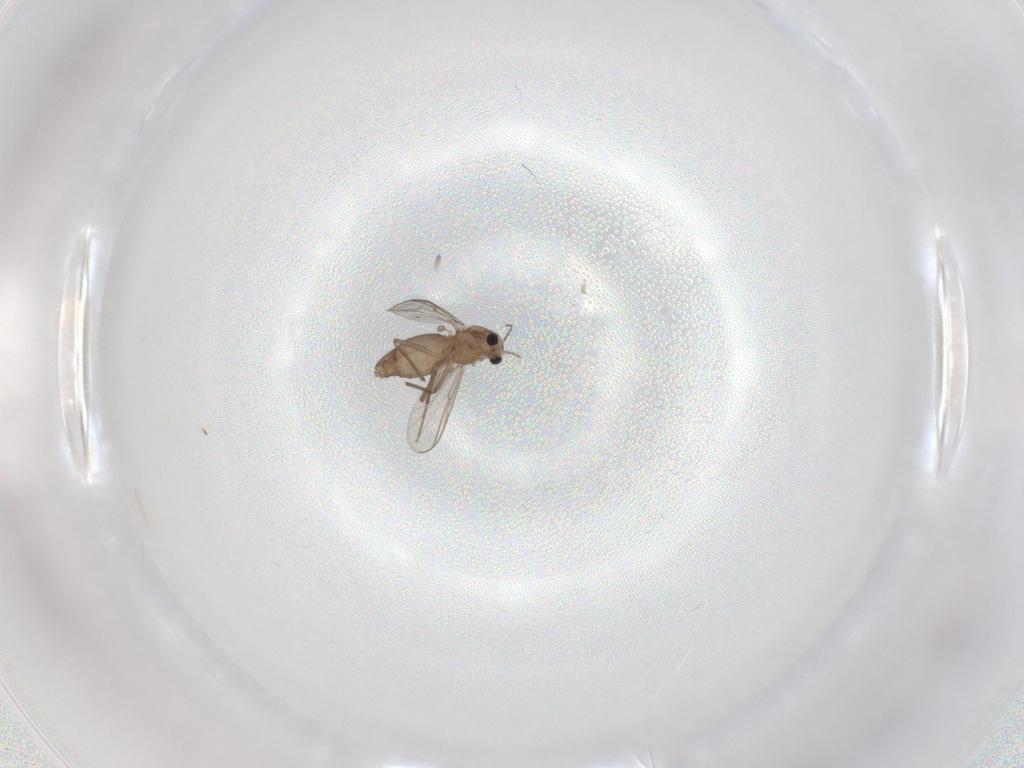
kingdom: Animalia
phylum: Arthropoda
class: Insecta
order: Diptera
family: Chironomidae
